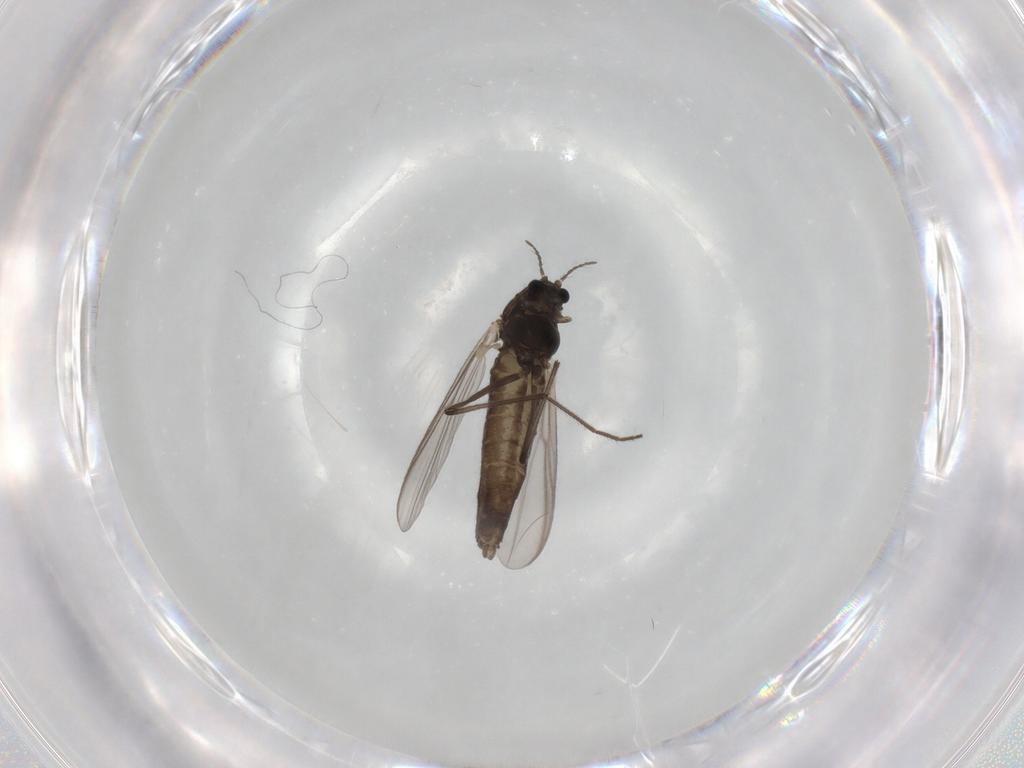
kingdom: Animalia
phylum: Arthropoda
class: Insecta
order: Diptera
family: Chironomidae
